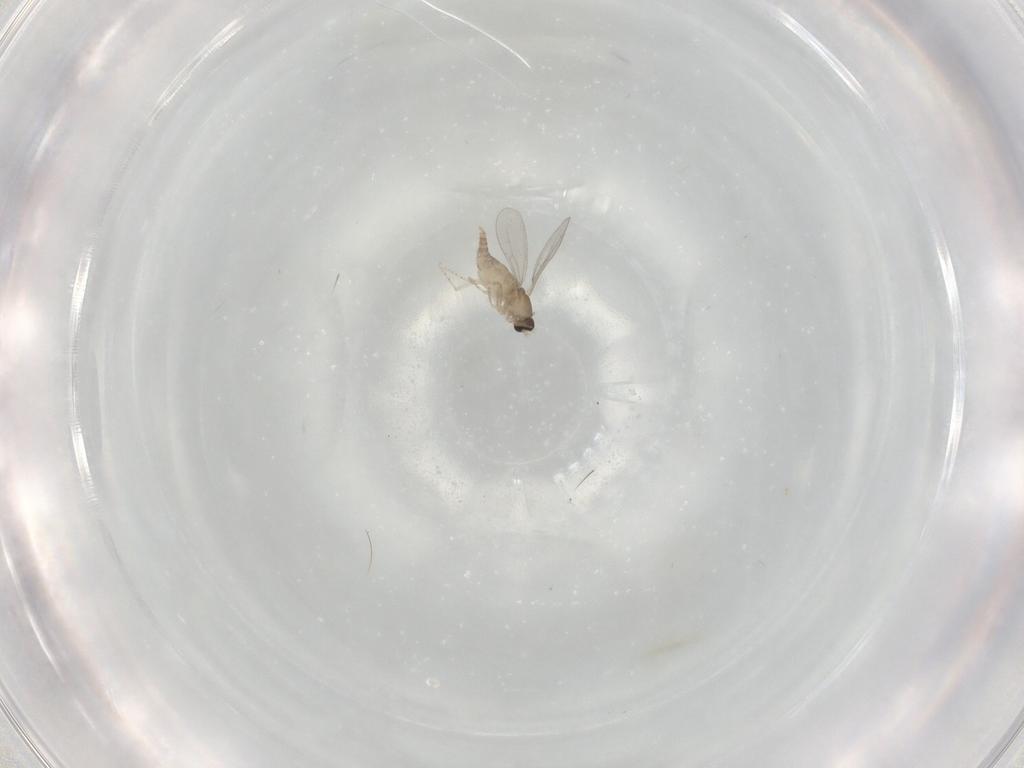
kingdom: Animalia
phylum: Arthropoda
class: Insecta
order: Diptera
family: Cecidomyiidae
